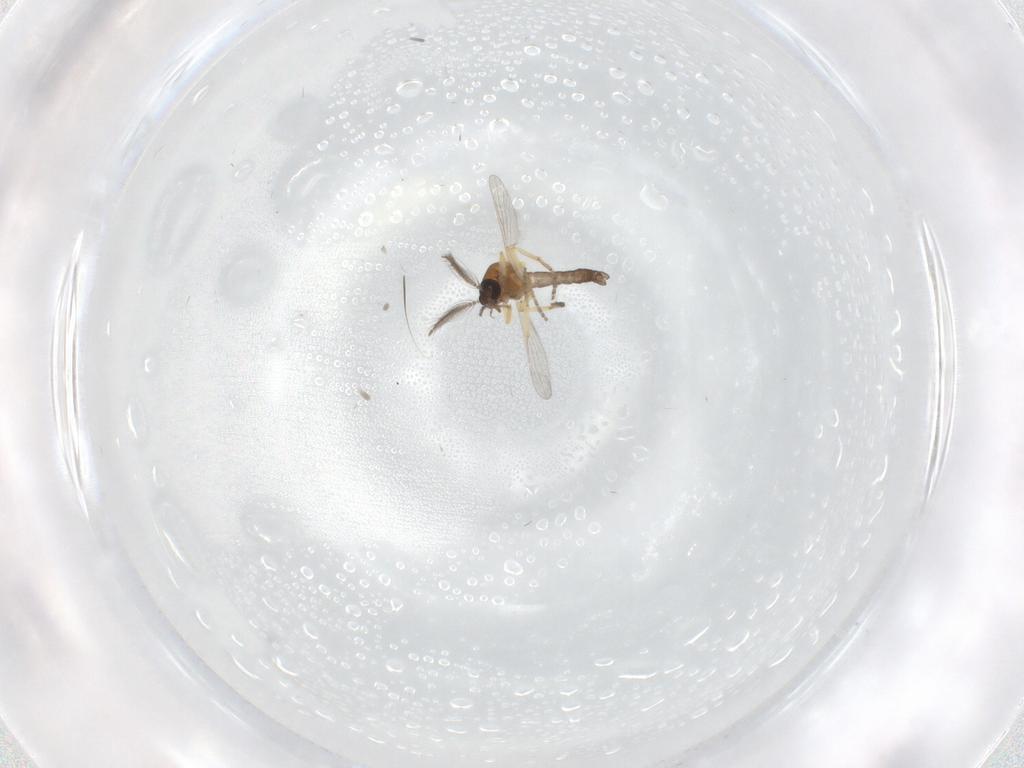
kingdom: Animalia
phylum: Arthropoda
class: Insecta
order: Diptera
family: Ceratopogonidae
